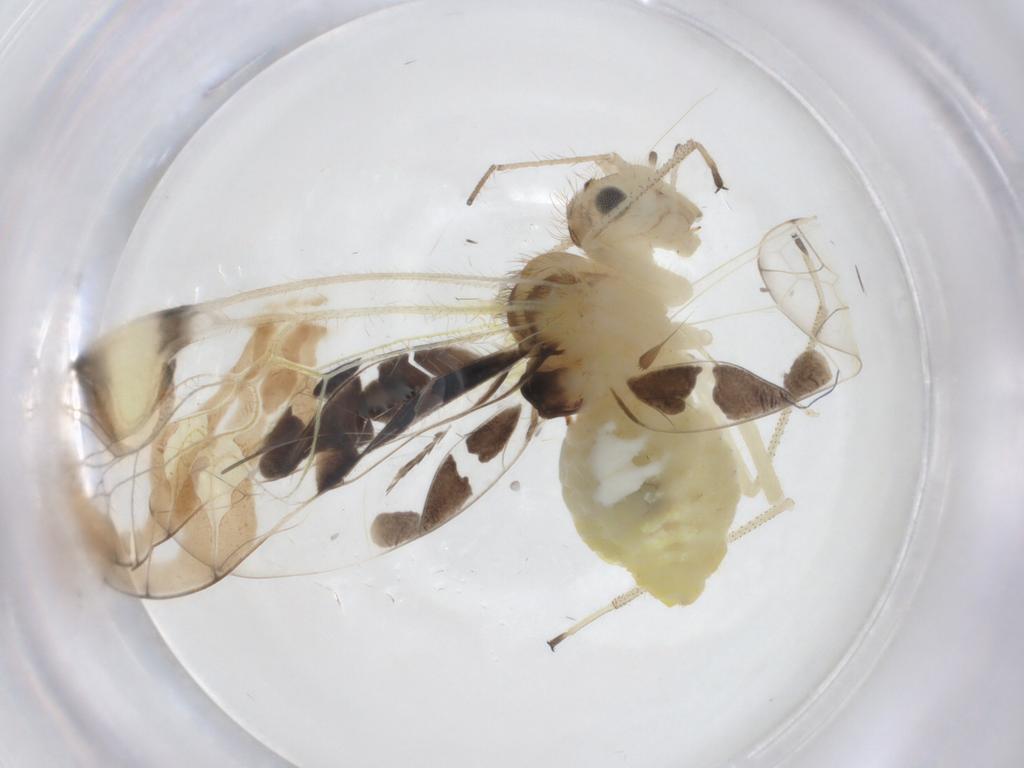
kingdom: Animalia
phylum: Arthropoda
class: Insecta
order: Psocodea
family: Amphipsocidae
